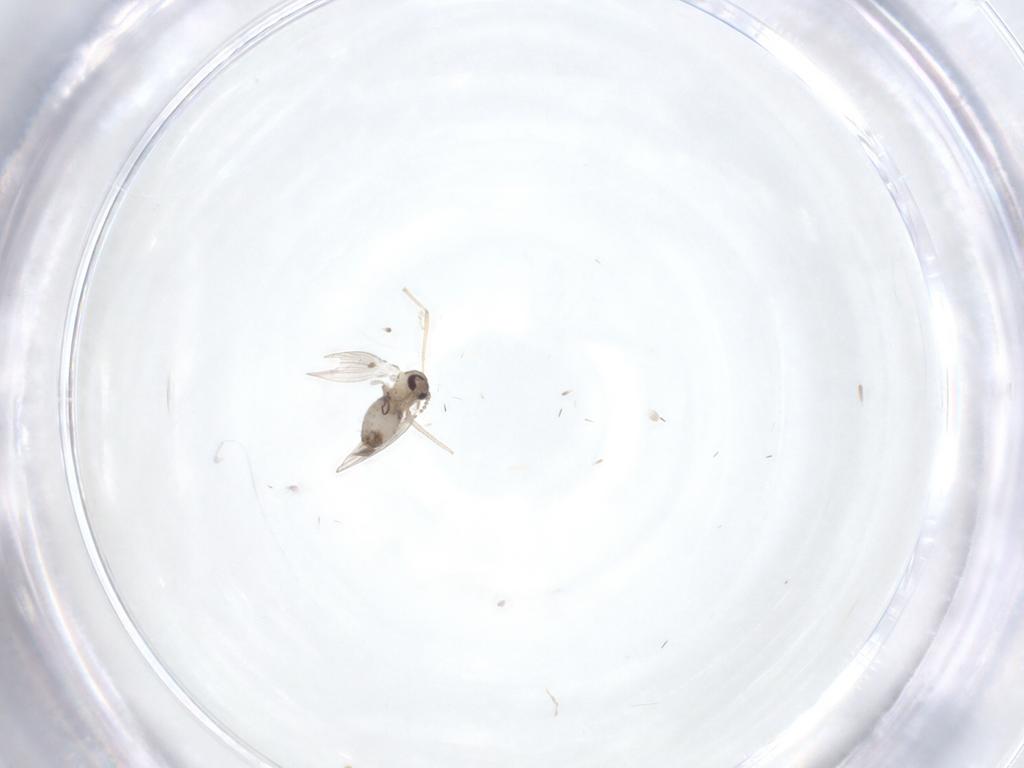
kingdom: Animalia
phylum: Arthropoda
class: Insecta
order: Diptera
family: Psychodidae
